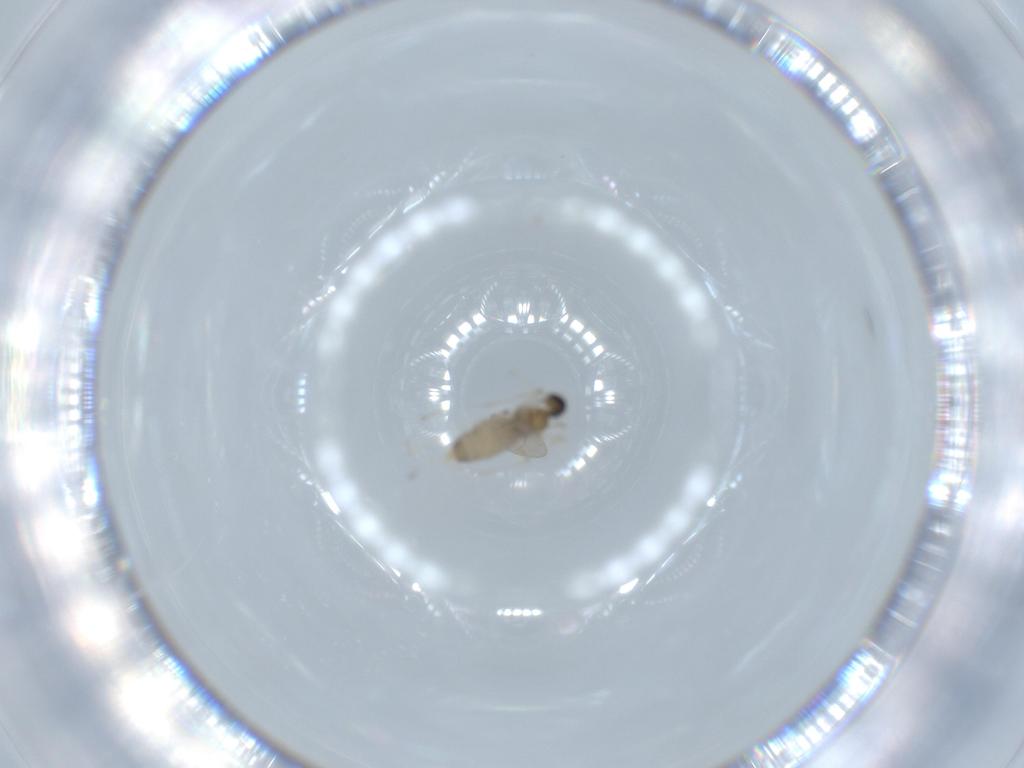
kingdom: Animalia
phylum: Arthropoda
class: Insecta
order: Diptera
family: Cecidomyiidae
